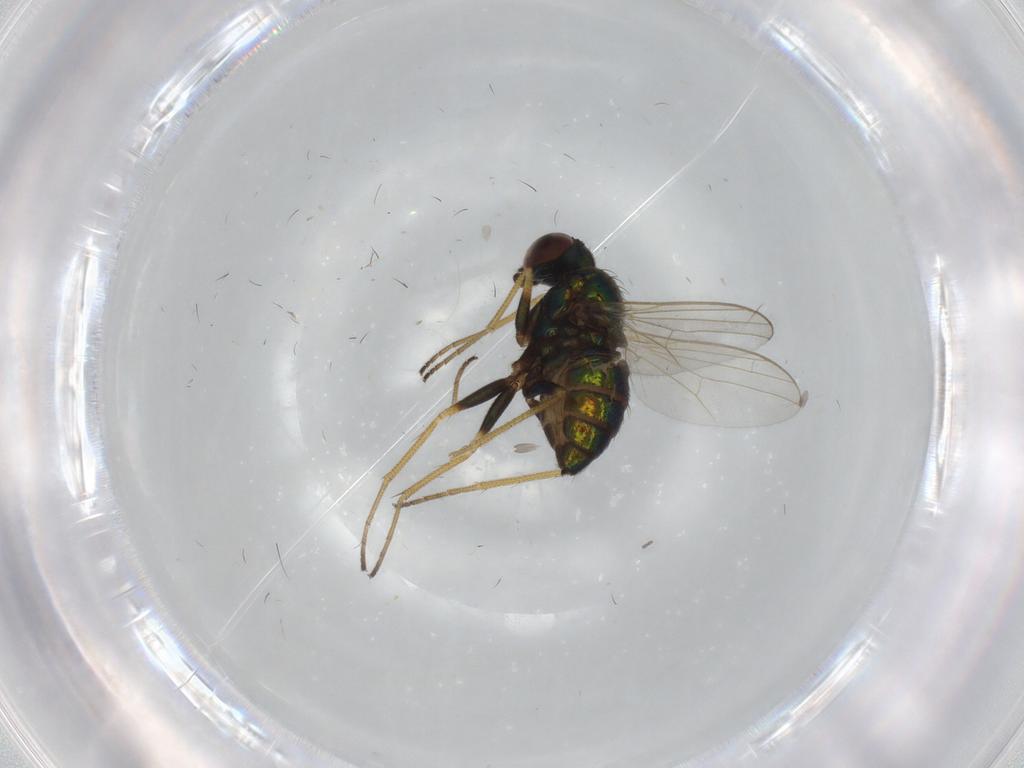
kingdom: Animalia
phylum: Arthropoda
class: Insecta
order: Diptera
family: Dolichopodidae
